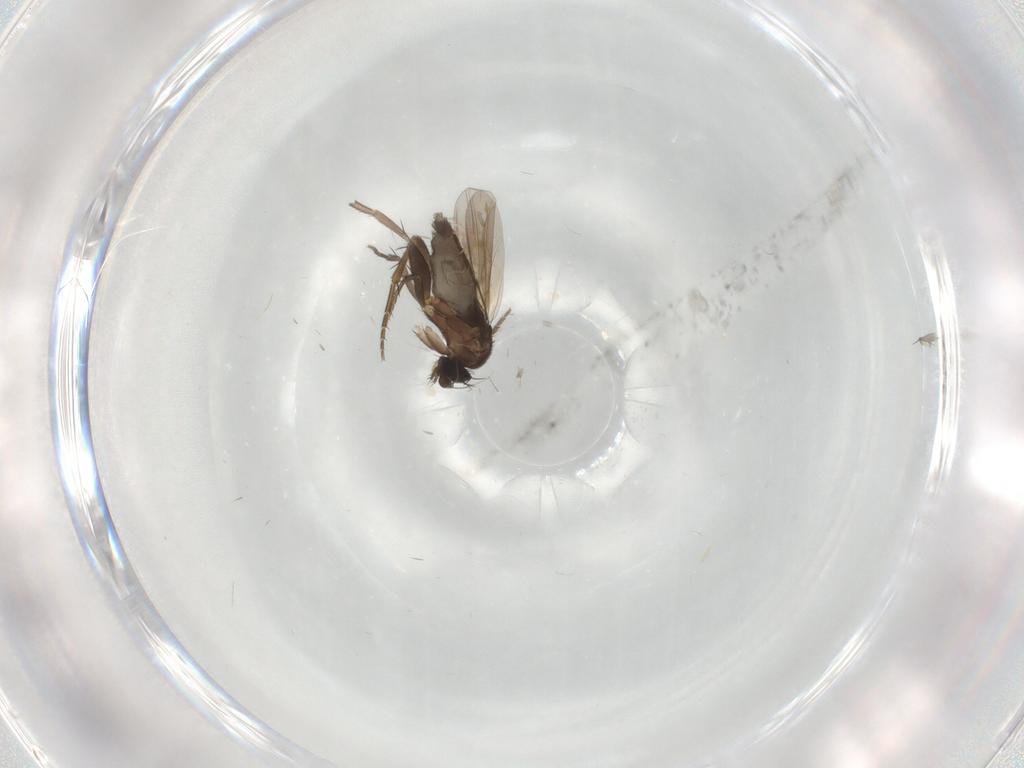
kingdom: Animalia
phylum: Arthropoda
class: Insecta
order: Diptera
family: Phoridae
